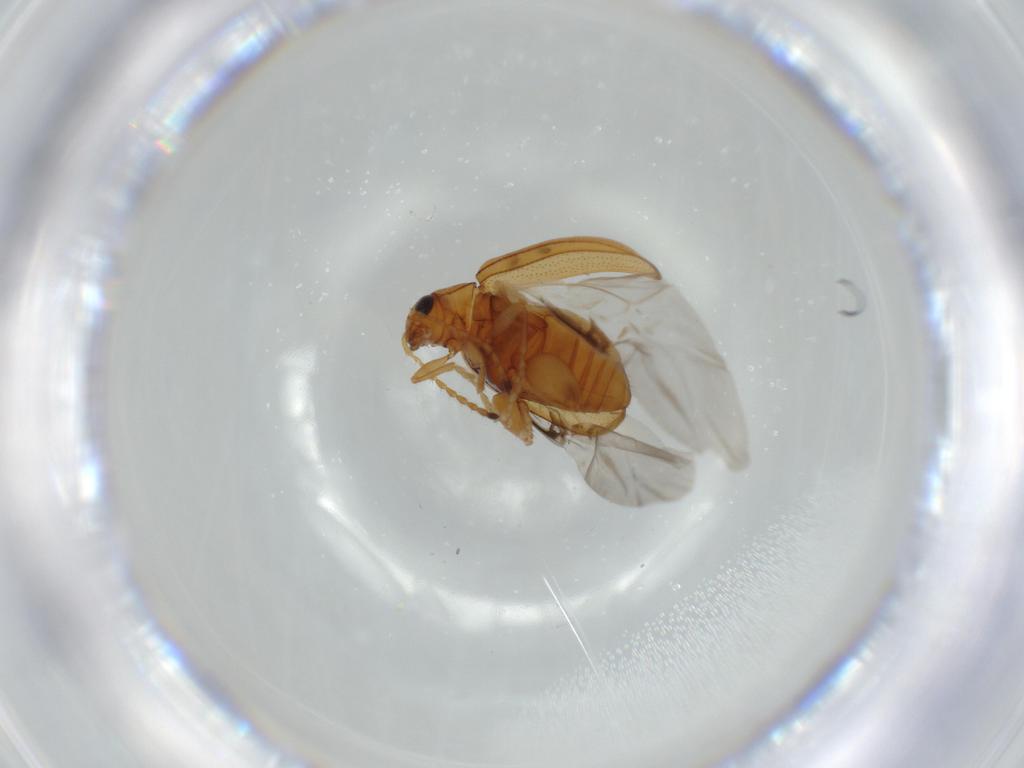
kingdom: Animalia
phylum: Arthropoda
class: Insecta
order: Coleoptera
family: Chrysomelidae
